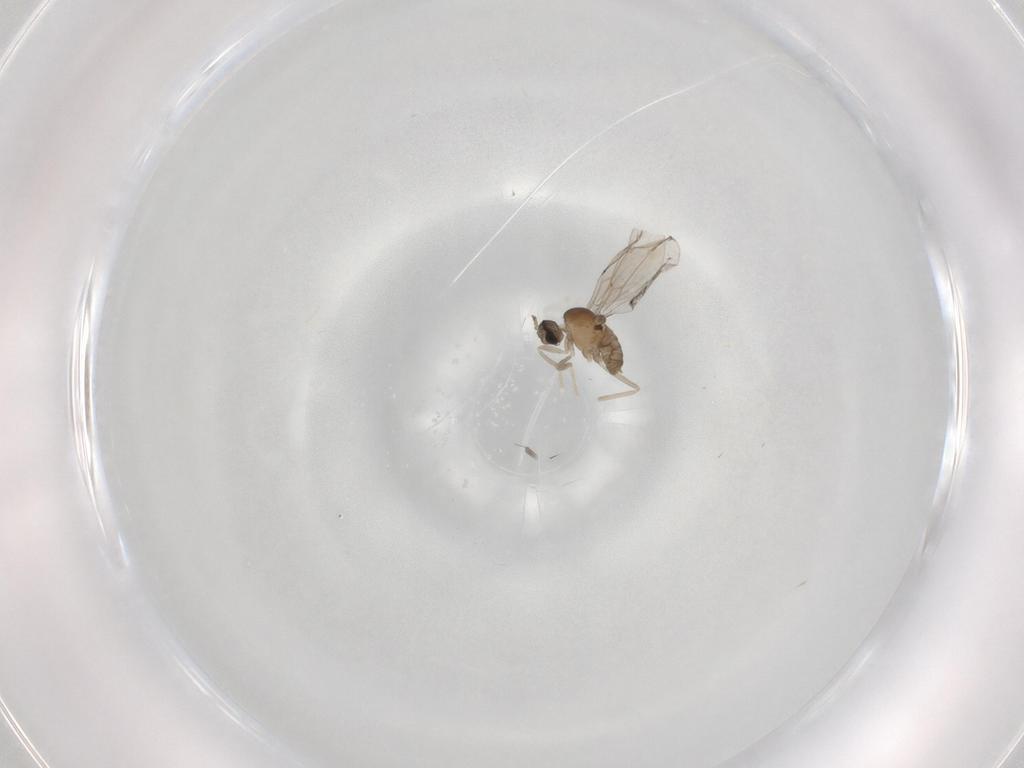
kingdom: Animalia
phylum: Arthropoda
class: Insecta
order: Diptera
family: Cecidomyiidae
